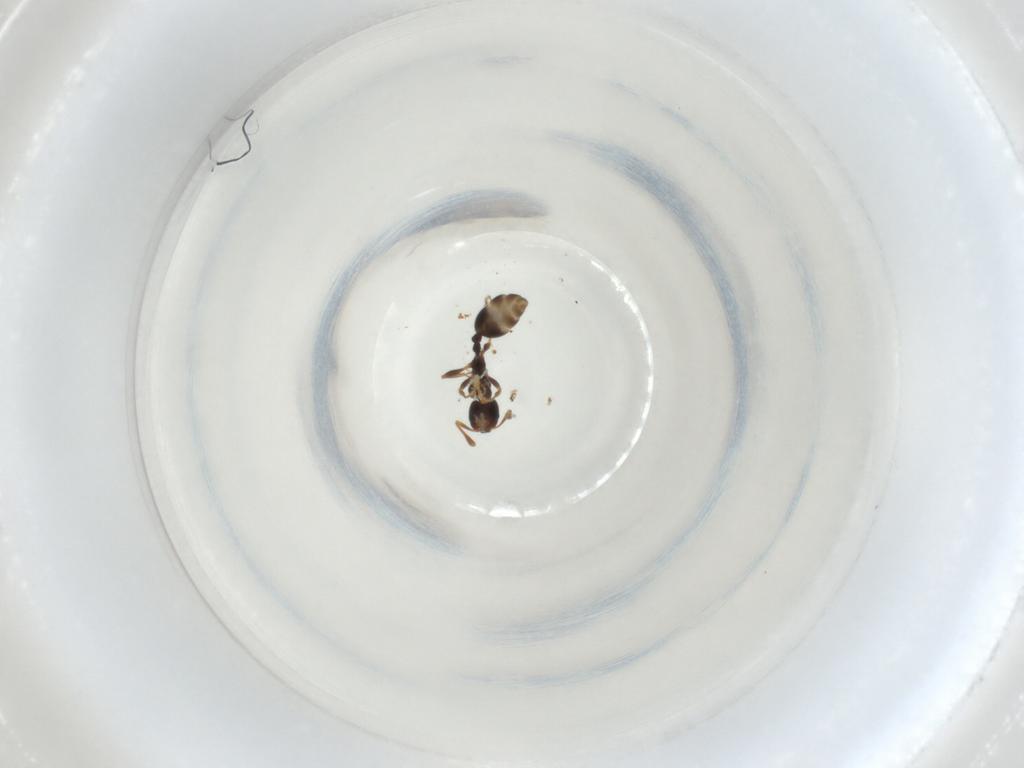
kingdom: Animalia
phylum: Arthropoda
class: Insecta
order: Hymenoptera
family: Formicidae
